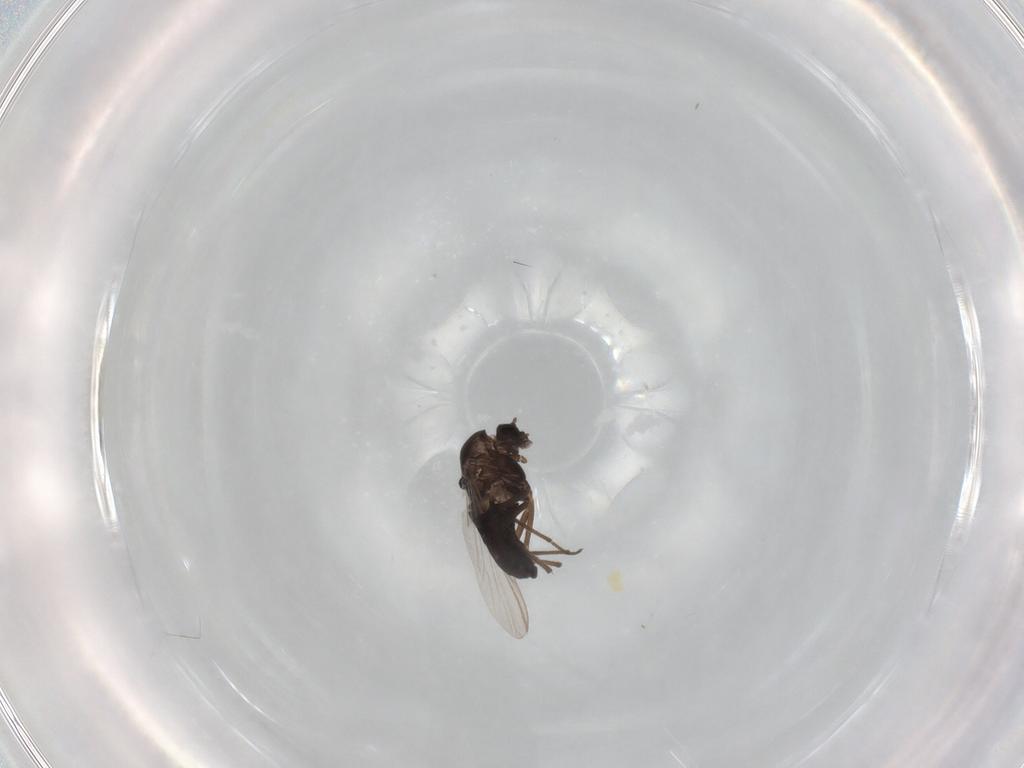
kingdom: Animalia
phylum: Arthropoda
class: Insecta
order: Diptera
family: Chironomidae
